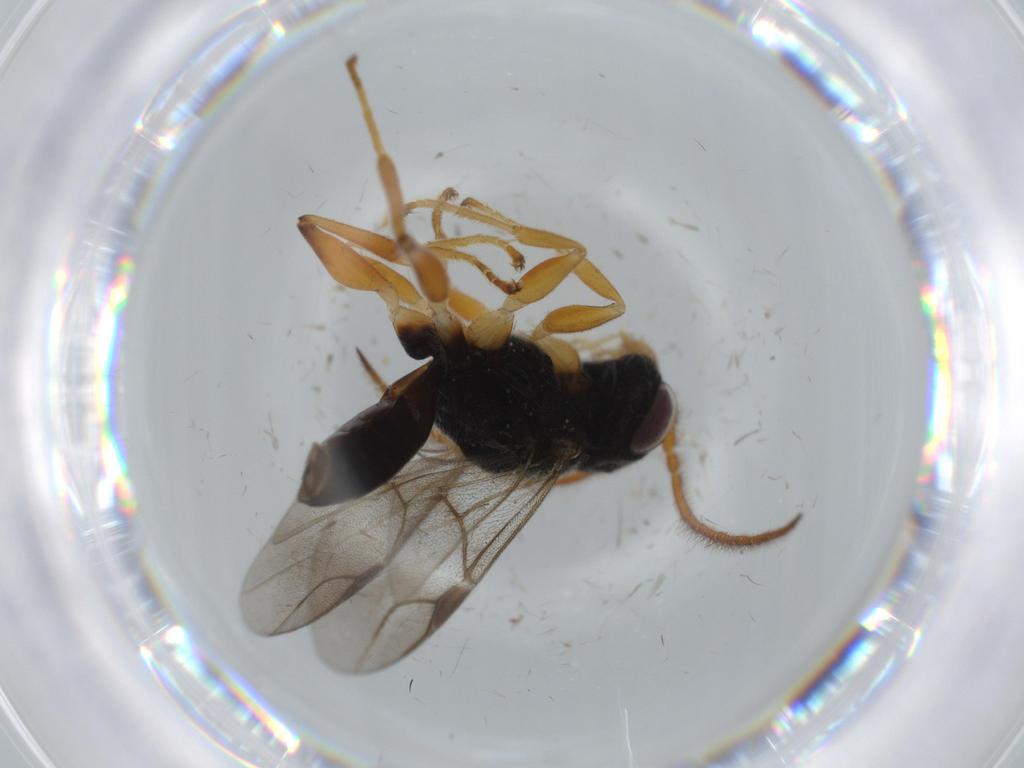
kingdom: Animalia
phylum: Arthropoda
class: Insecta
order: Hymenoptera
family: Dryinidae
